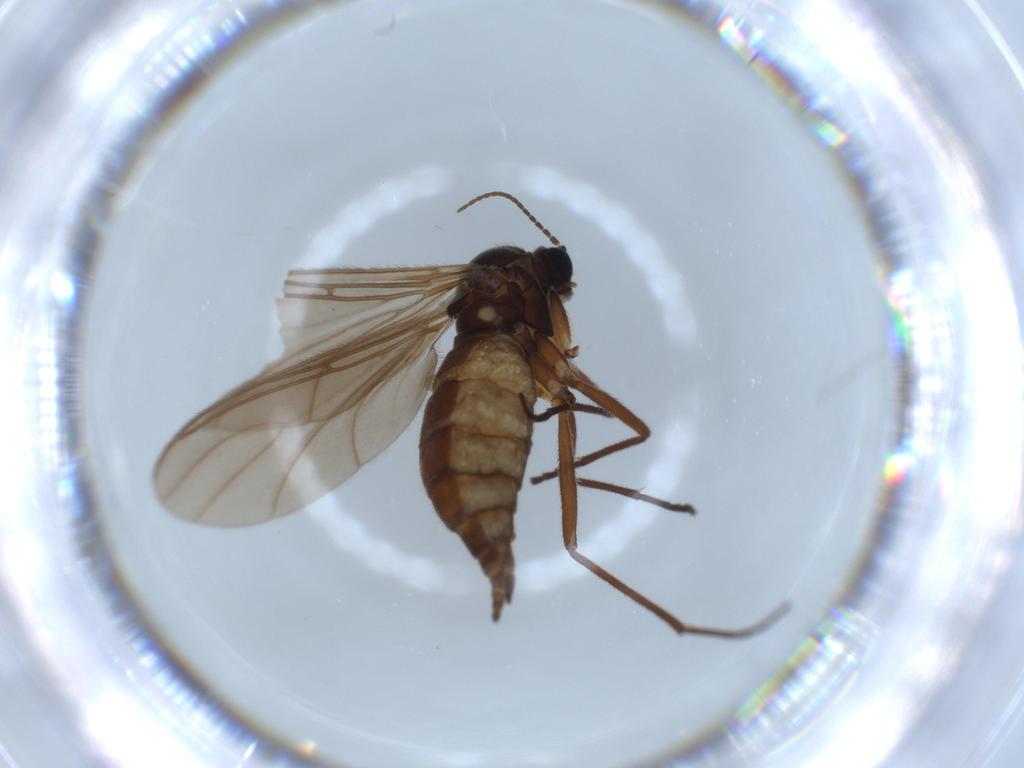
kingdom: Animalia
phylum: Arthropoda
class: Insecta
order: Diptera
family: Sciaridae
